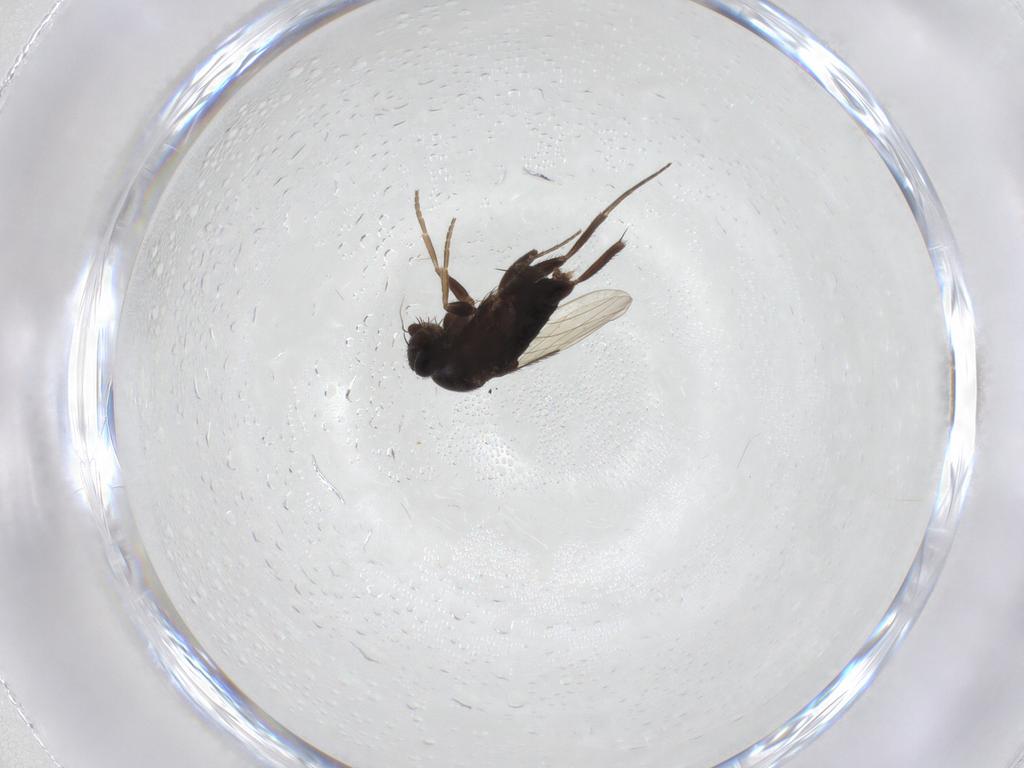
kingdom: Animalia
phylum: Arthropoda
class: Insecta
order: Diptera
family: Phoridae
